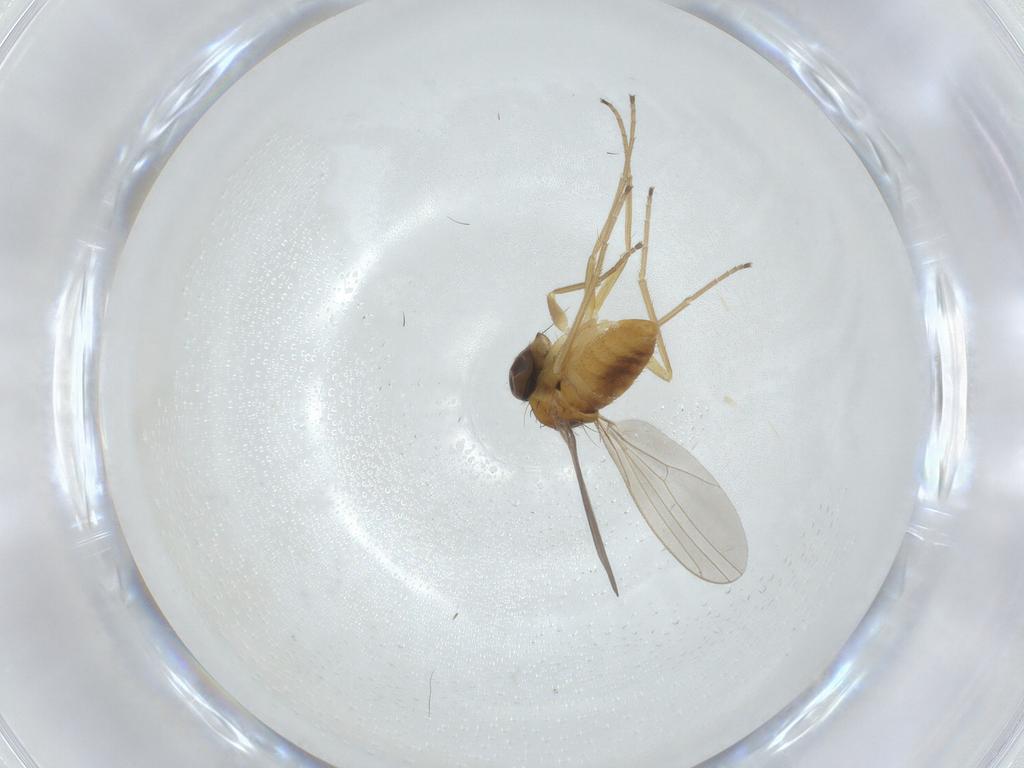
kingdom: Animalia
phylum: Arthropoda
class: Insecta
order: Diptera
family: Dolichopodidae
